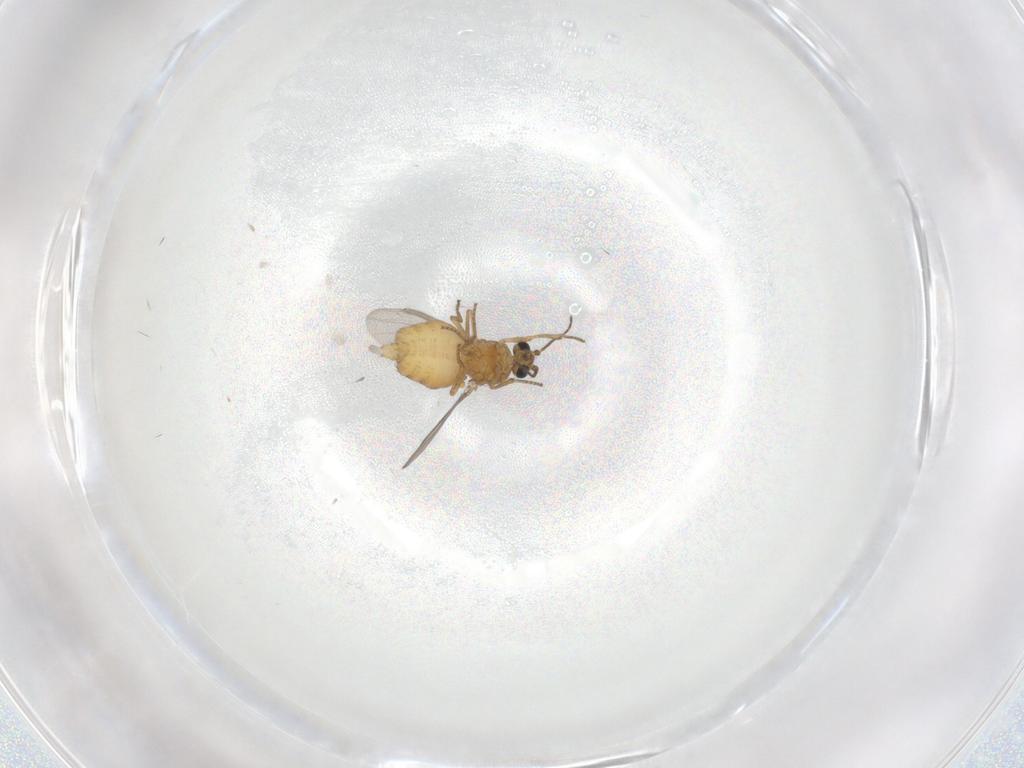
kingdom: Animalia
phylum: Arthropoda
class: Insecta
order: Diptera
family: Ceratopogonidae
